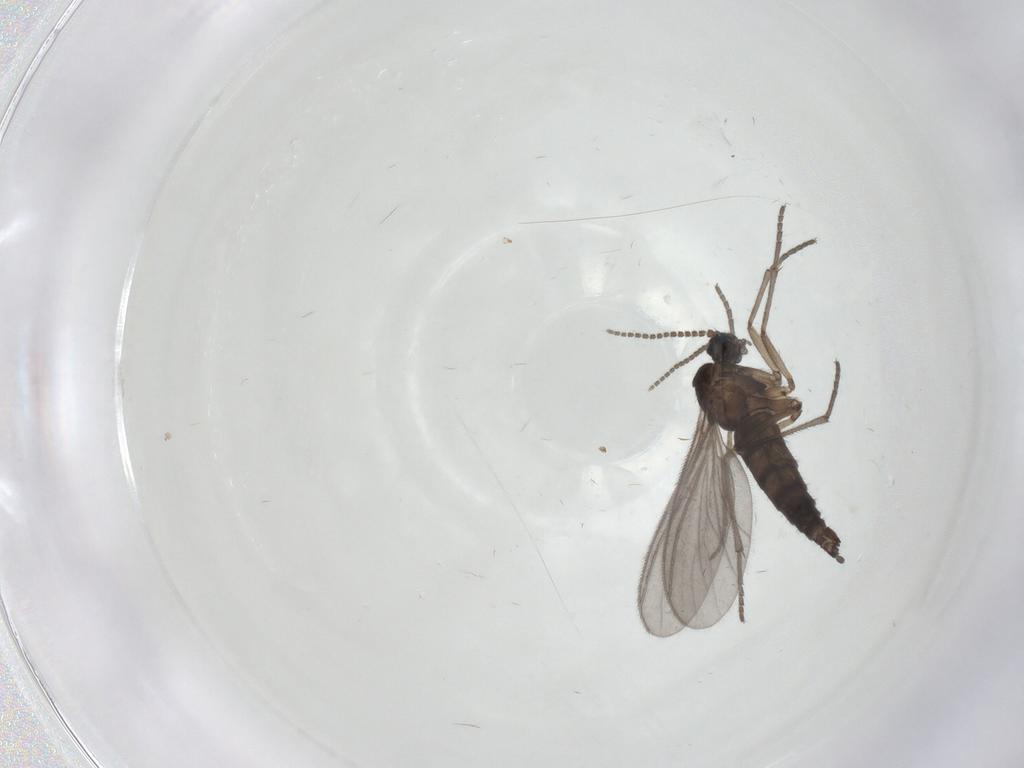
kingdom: Animalia
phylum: Arthropoda
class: Insecta
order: Diptera
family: Sciaridae
